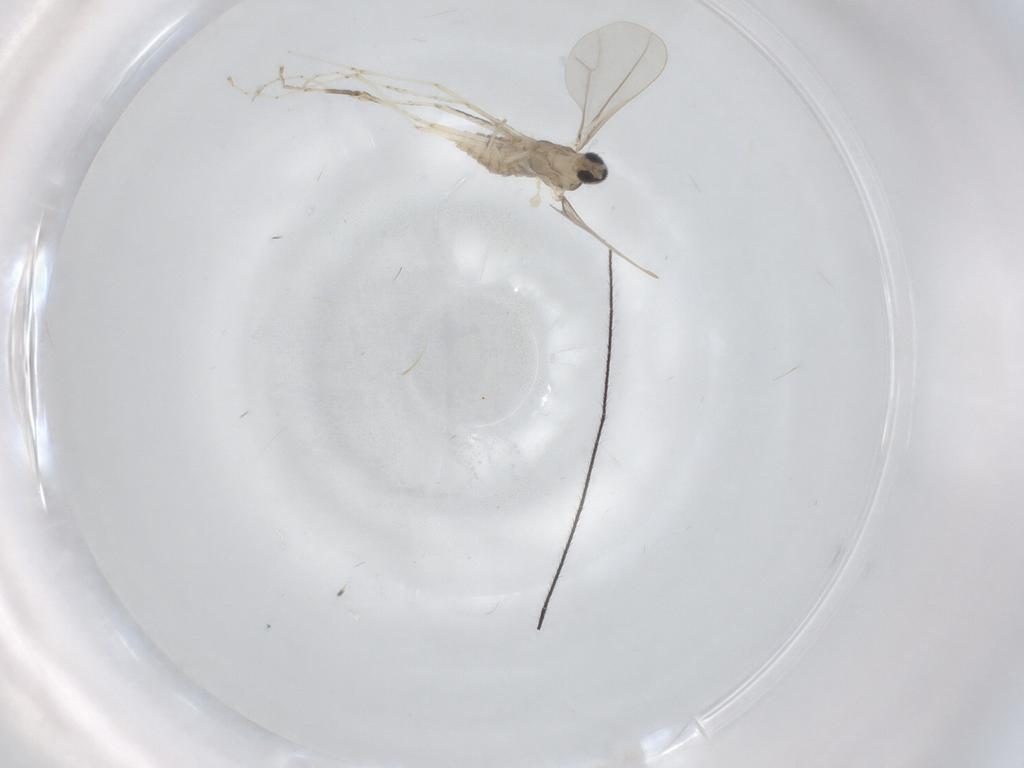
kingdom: Animalia
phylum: Arthropoda
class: Insecta
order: Diptera
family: Cecidomyiidae
